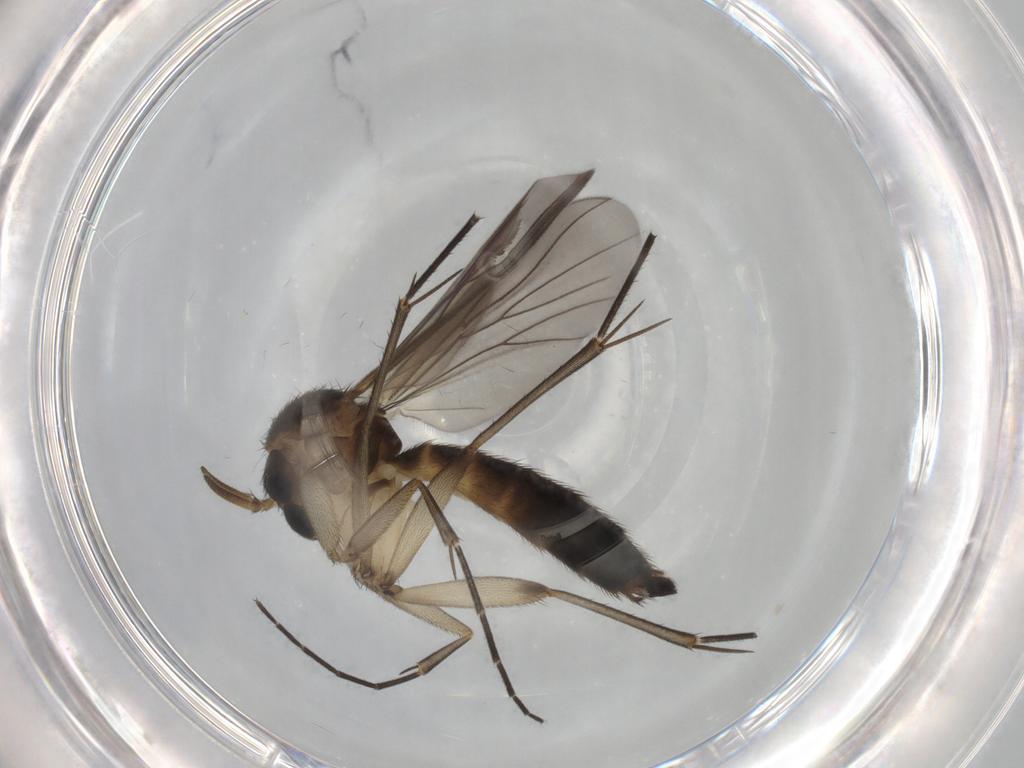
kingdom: Animalia
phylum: Arthropoda
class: Insecta
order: Diptera
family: Mycetophilidae
